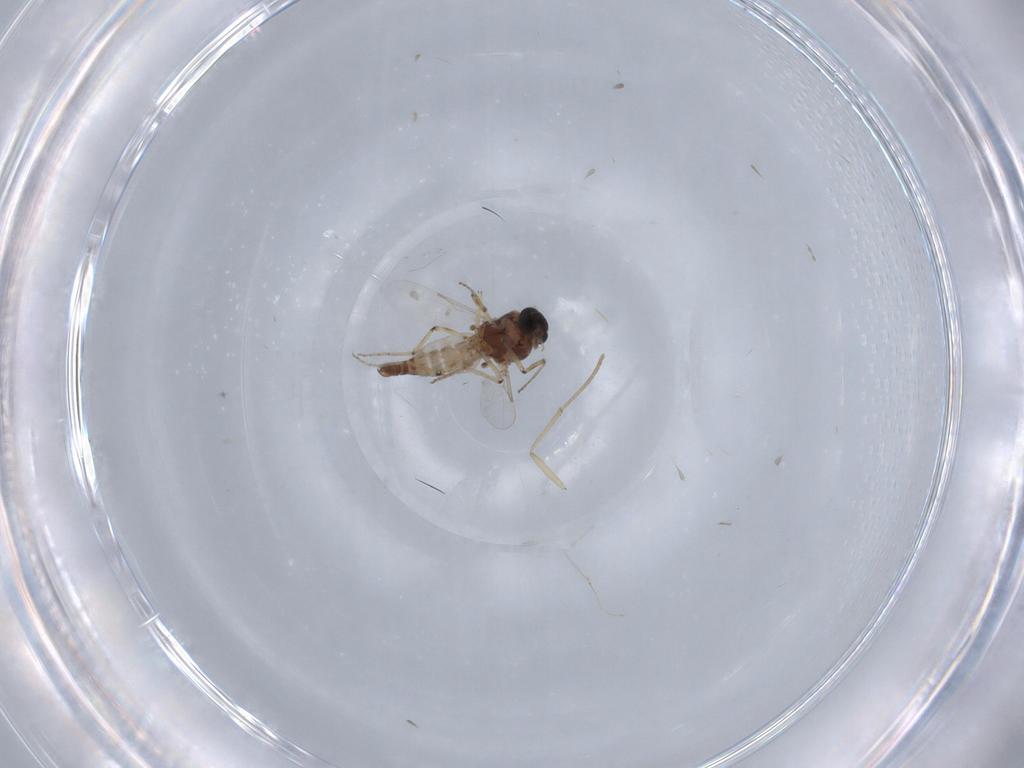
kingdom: Animalia
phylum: Arthropoda
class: Insecta
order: Diptera
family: Ceratopogonidae
